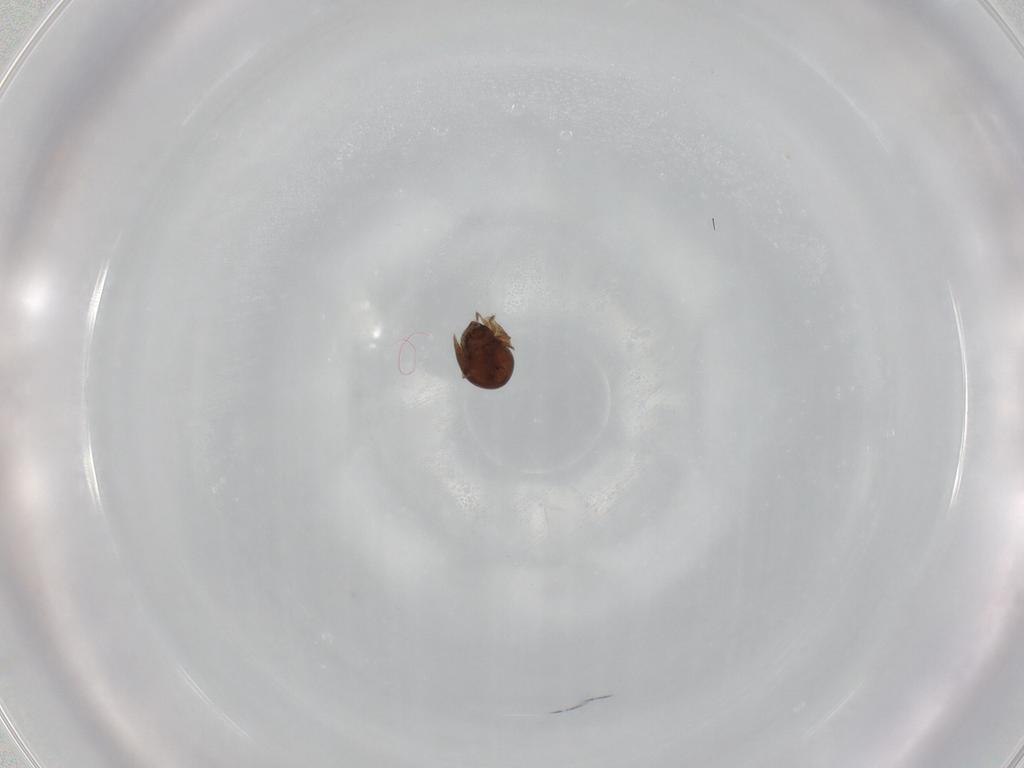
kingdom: Animalia
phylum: Arthropoda
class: Arachnida
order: Sarcoptiformes
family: Galumnidae
